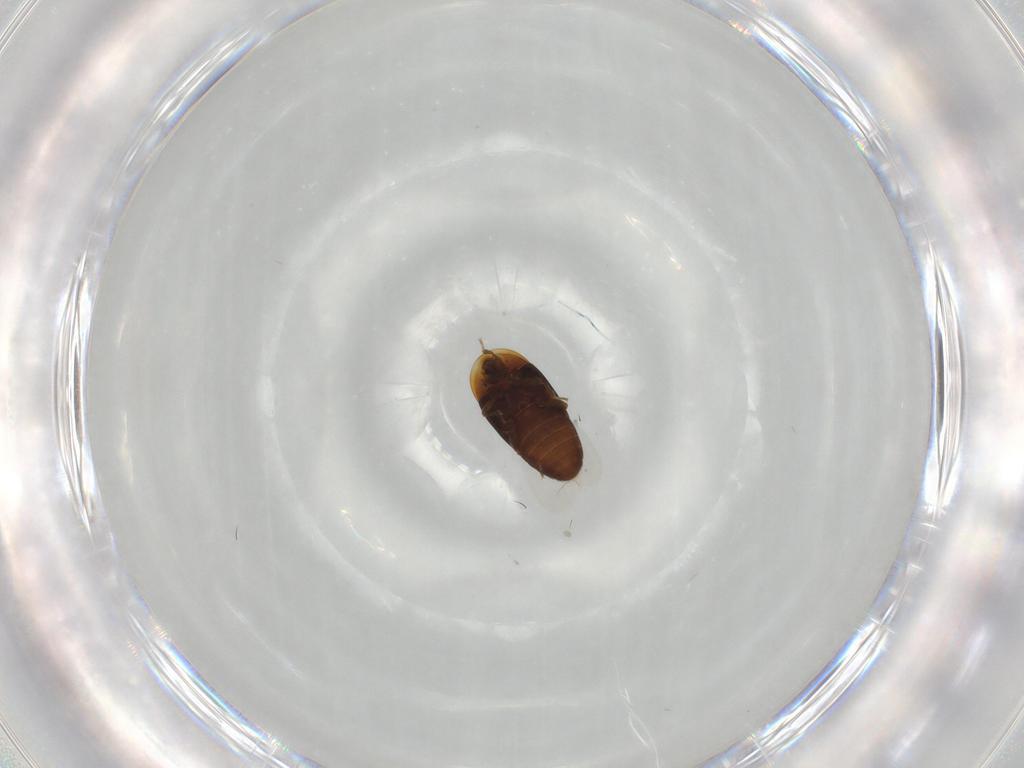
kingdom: Animalia
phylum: Arthropoda
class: Insecta
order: Coleoptera
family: Corylophidae
